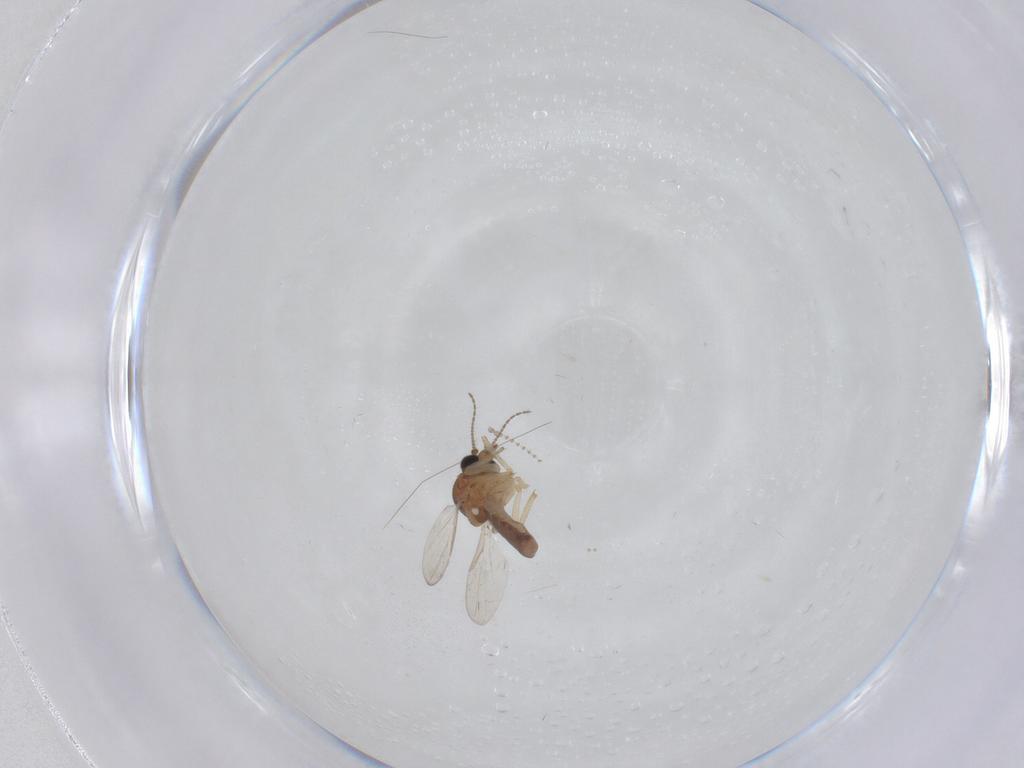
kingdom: Animalia
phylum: Arthropoda
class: Insecta
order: Diptera
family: Ceratopogonidae
